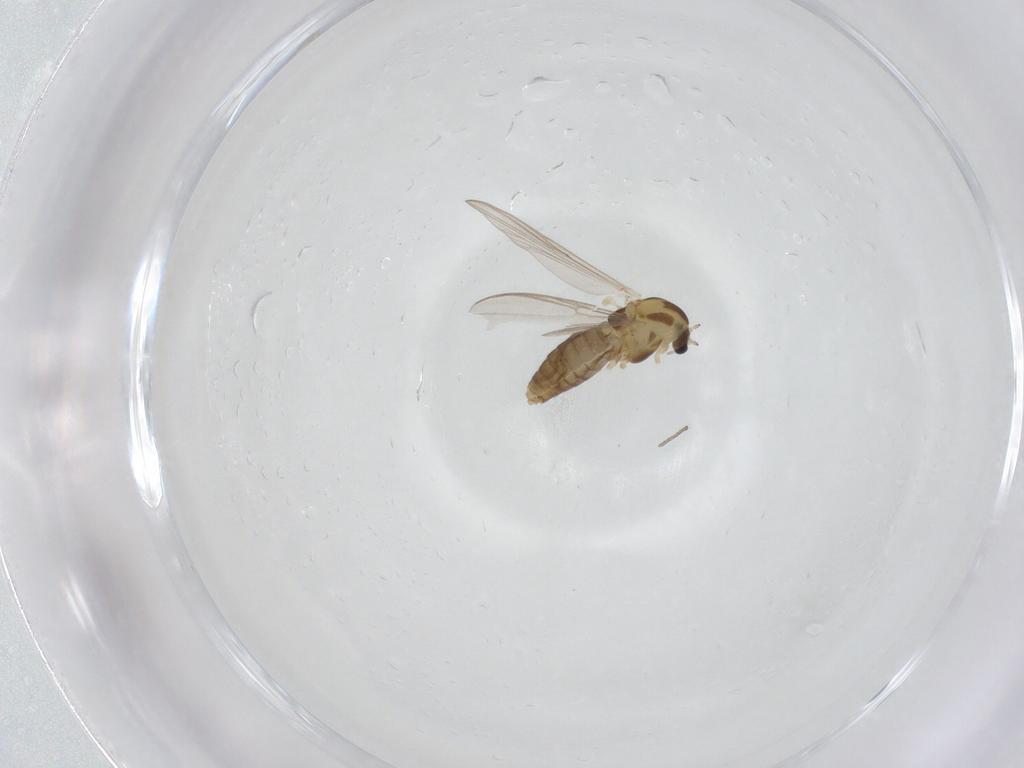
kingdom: Animalia
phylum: Arthropoda
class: Insecta
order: Diptera
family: Chironomidae
